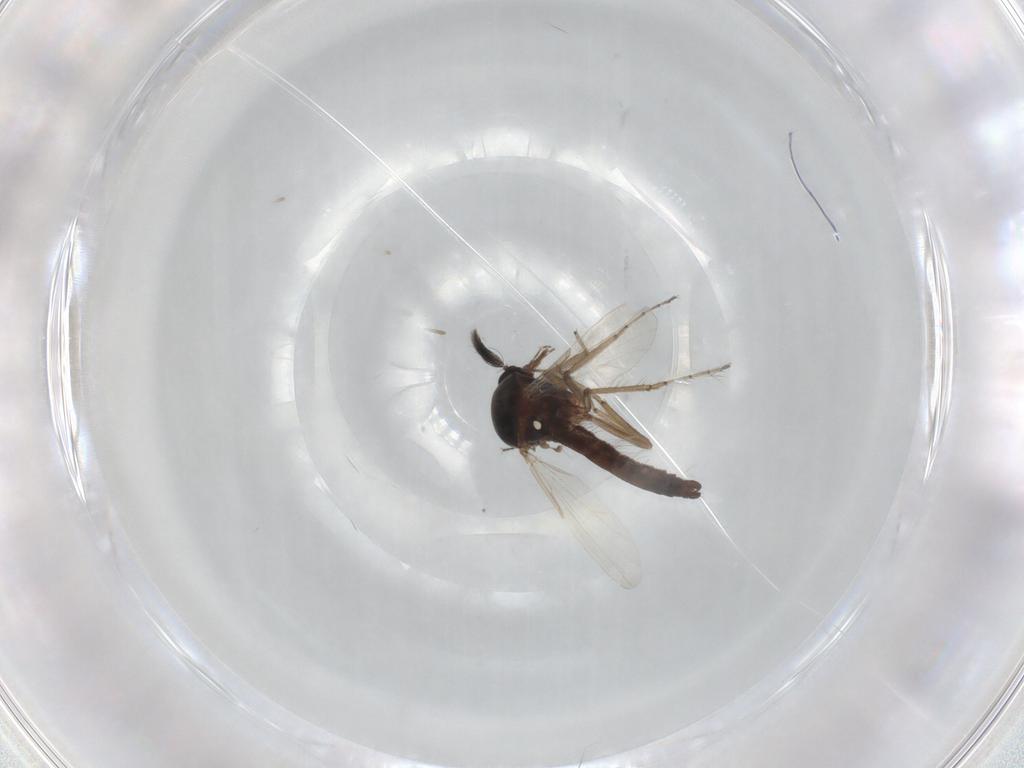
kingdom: Animalia
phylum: Arthropoda
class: Insecta
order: Diptera
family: Ceratopogonidae
